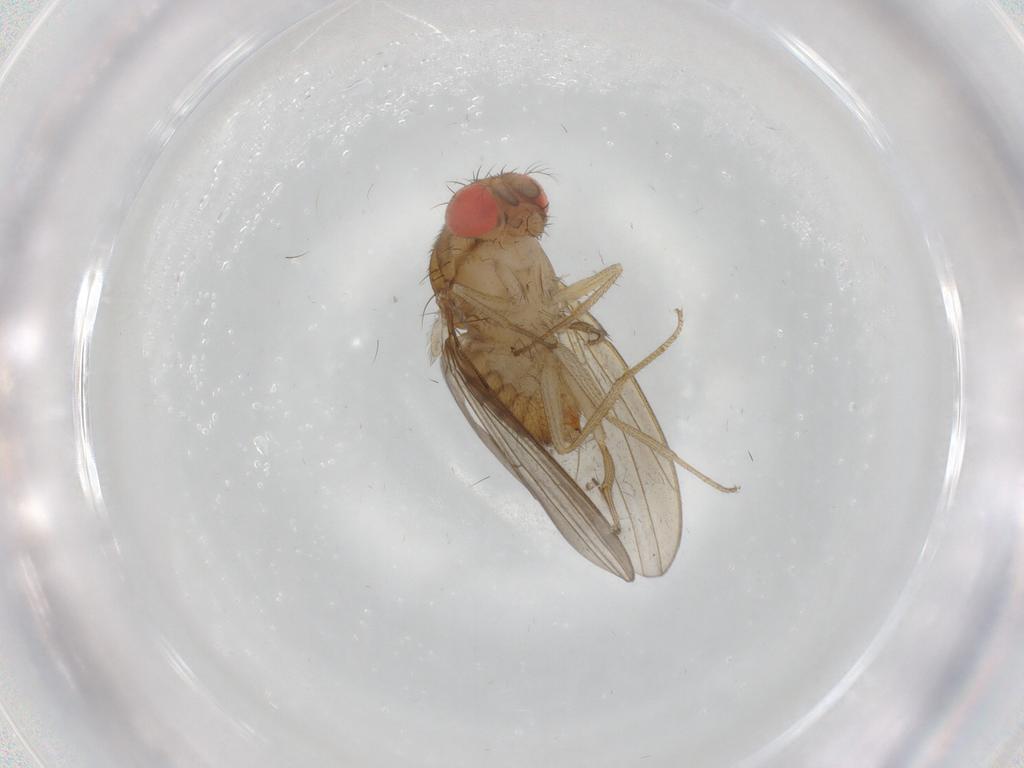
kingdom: Animalia
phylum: Arthropoda
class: Insecta
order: Diptera
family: Drosophilidae
